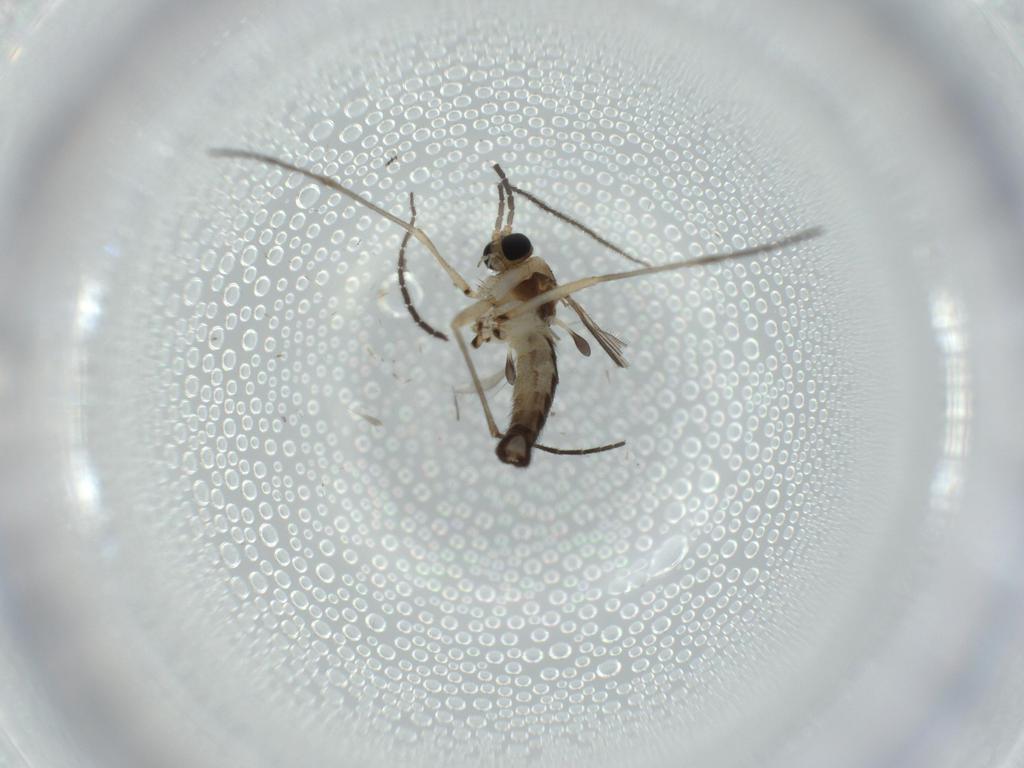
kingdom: Animalia
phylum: Arthropoda
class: Insecta
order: Diptera
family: Sciaridae
